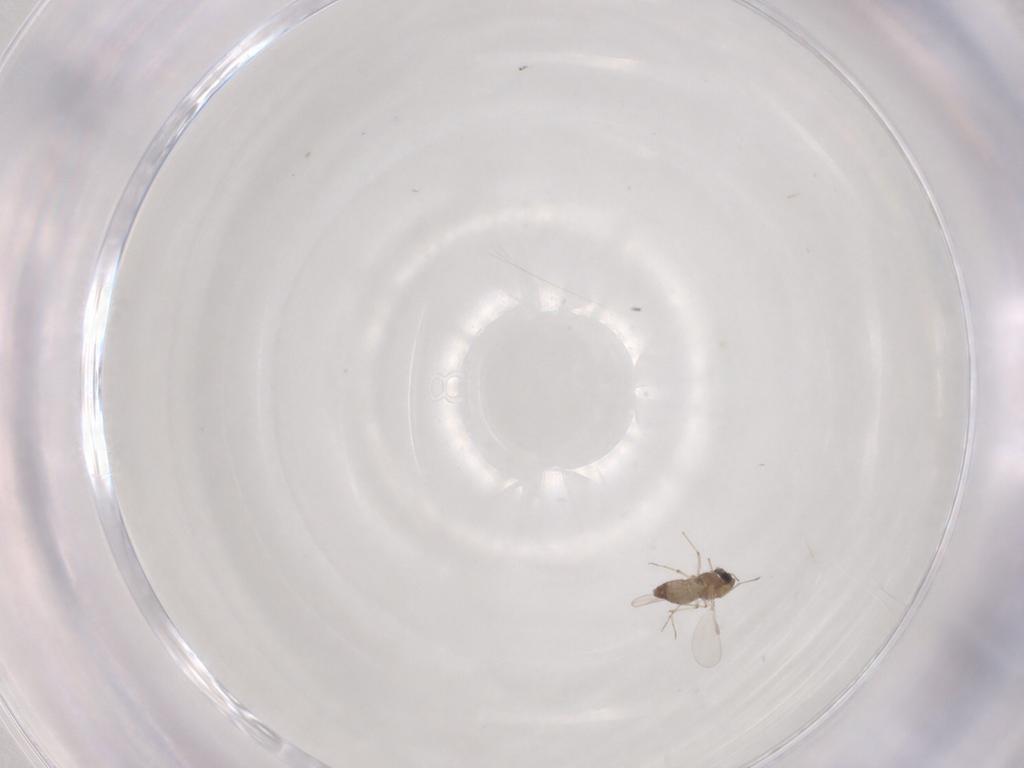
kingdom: Animalia
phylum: Arthropoda
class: Insecta
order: Diptera
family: Chironomidae
